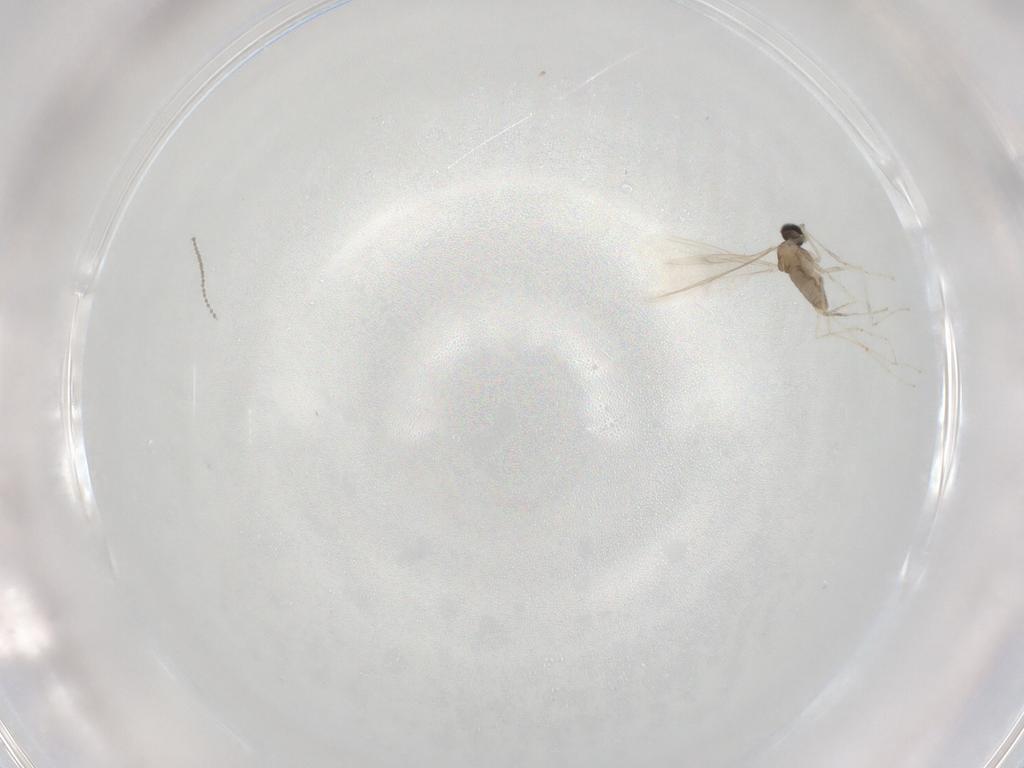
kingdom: Animalia
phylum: Arthropoda
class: Insecta
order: Diptera
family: Cecidomyiidae
